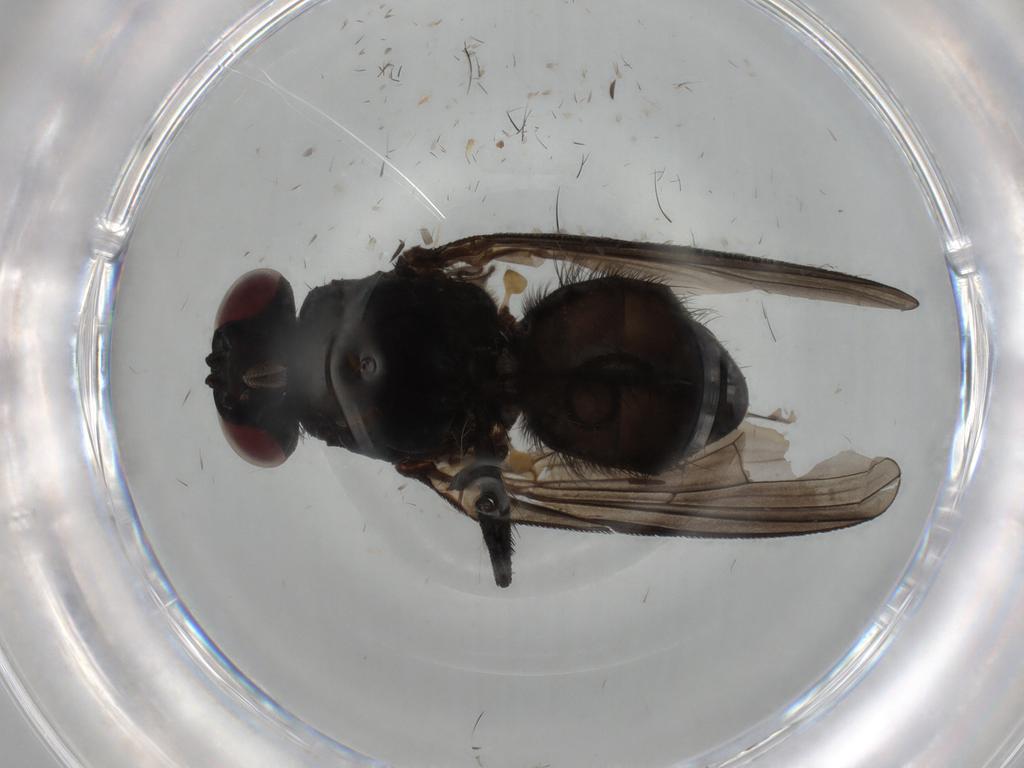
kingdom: Animalia
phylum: Arthropoda
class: Insecta
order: Diptera
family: Fannia
